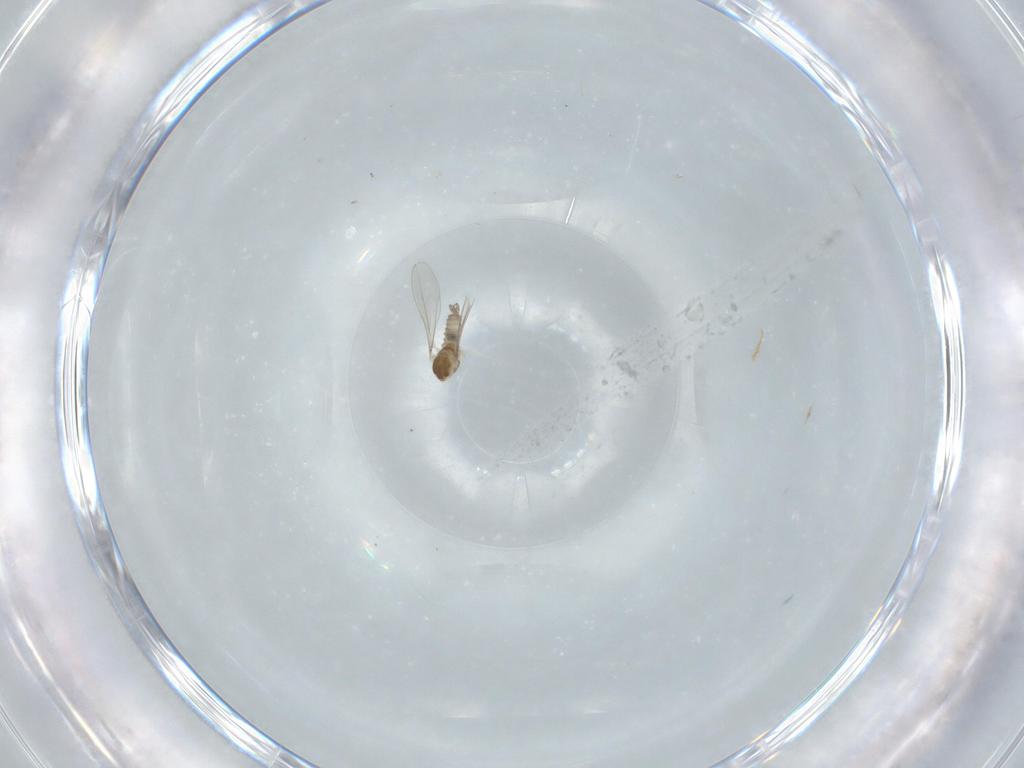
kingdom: Animalia
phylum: Arthropoda
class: Insecta
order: Diptera
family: Cecidomyiidae
